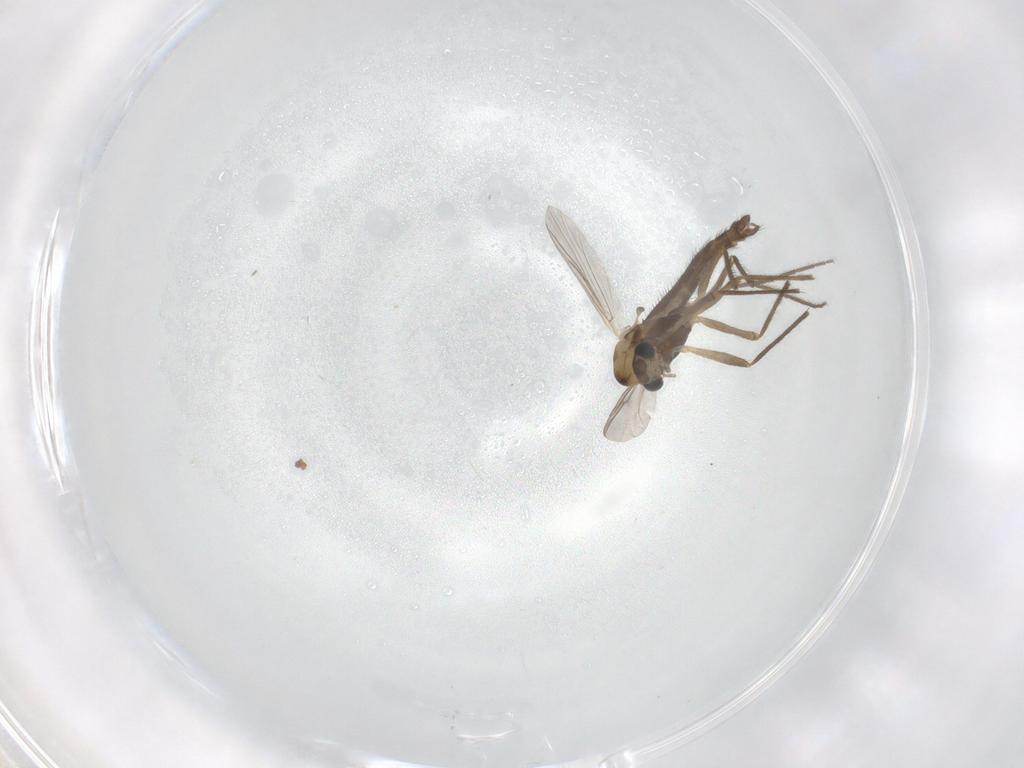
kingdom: Animalia
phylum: Arthropoda
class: Insecta
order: Diptera
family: Chironomidae
